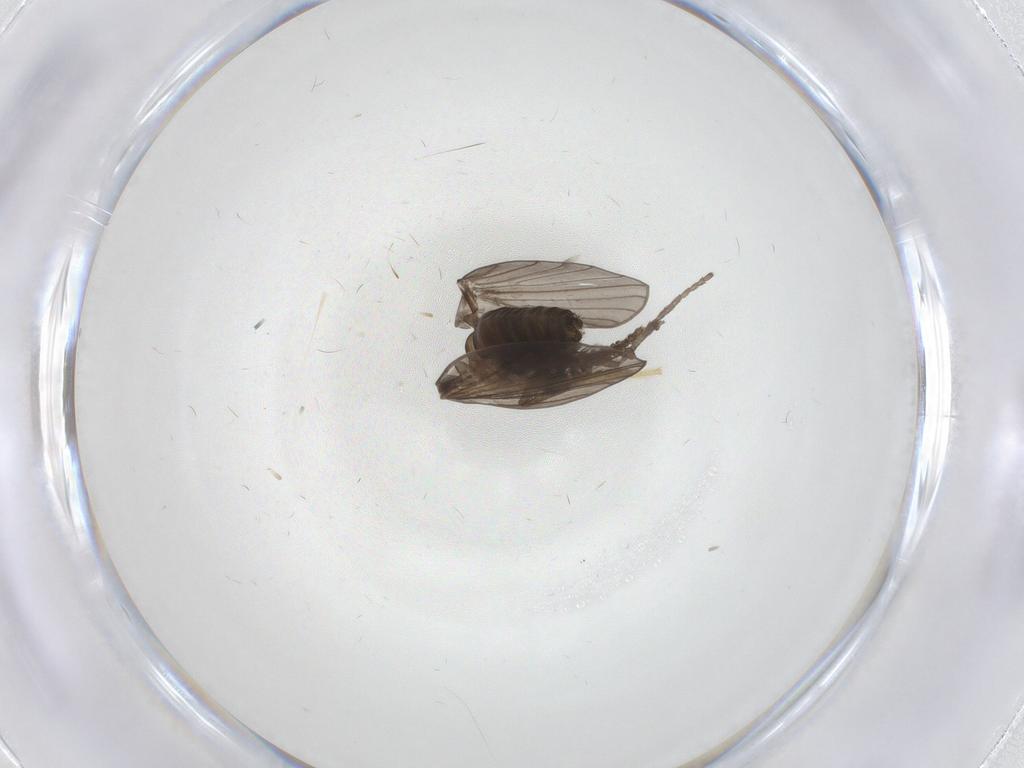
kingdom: Animalia
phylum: Arthropoda
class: Insecta
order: Diptera
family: Psychodidae
